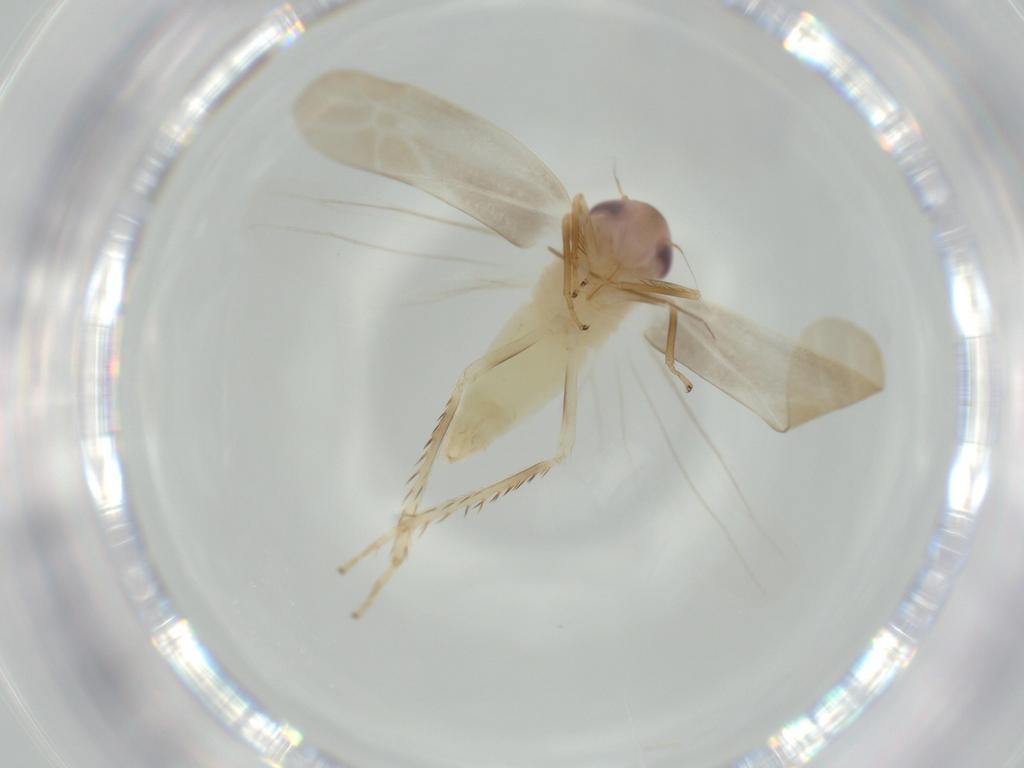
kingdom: Animalia
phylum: Arthropoda
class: Insecta
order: Hemiptera
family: Cicadellidae
